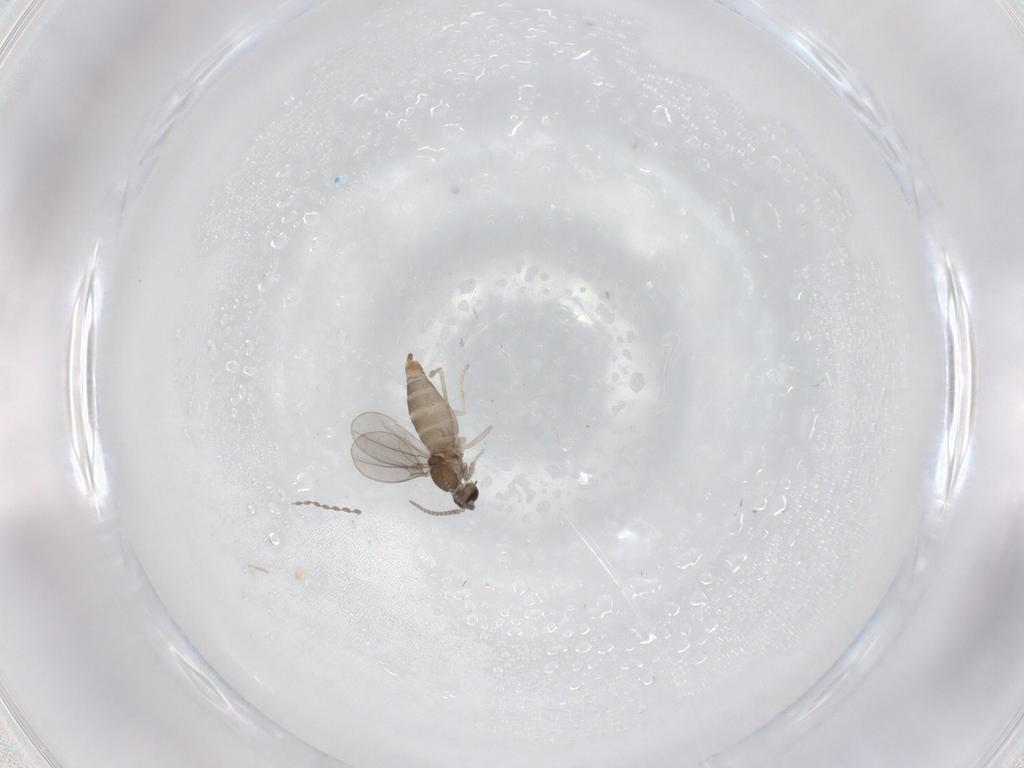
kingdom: Animalia
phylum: Arthropoda
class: Insecta
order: Diptera
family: Cecidomyiidae
